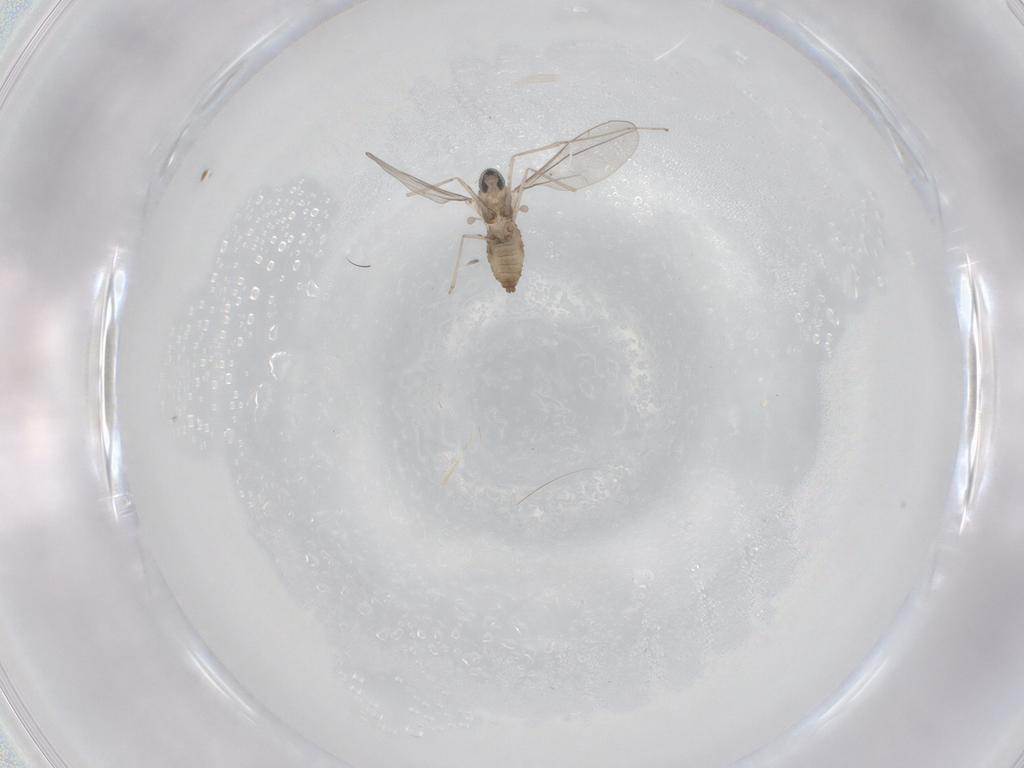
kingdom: Animalia
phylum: Arthropoda
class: Insecta
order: Diptera
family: Cecidomyiidae
